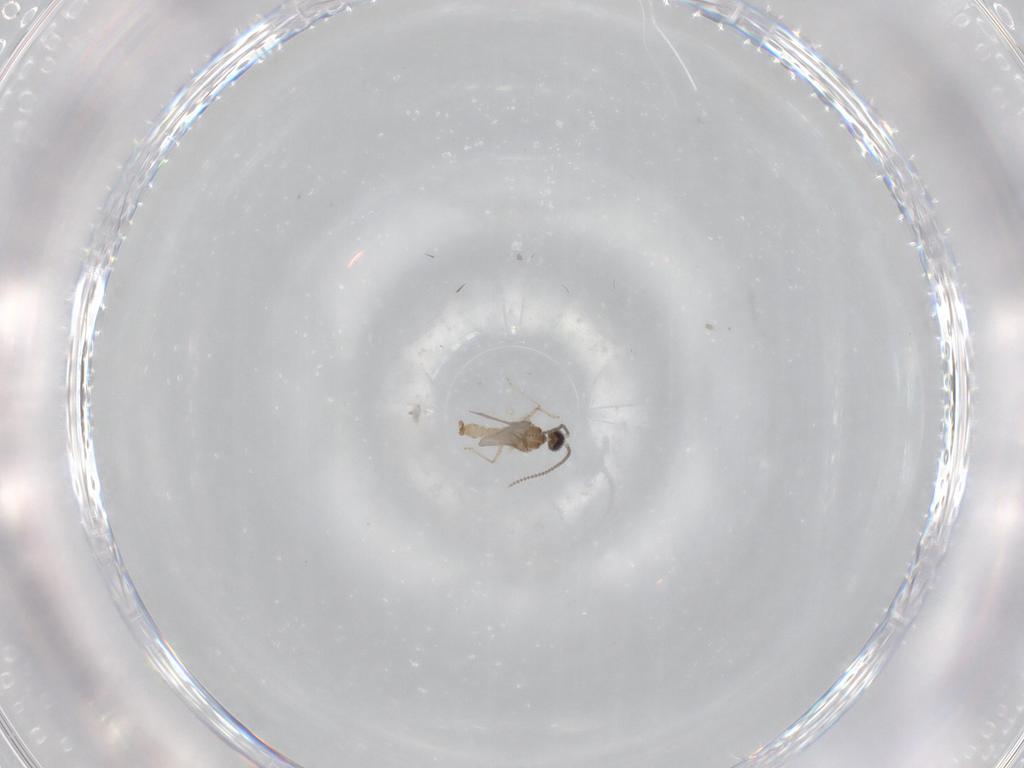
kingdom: Animalia
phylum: Arthropoda
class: Insecta
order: Diptera
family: Cecidomyiidae
